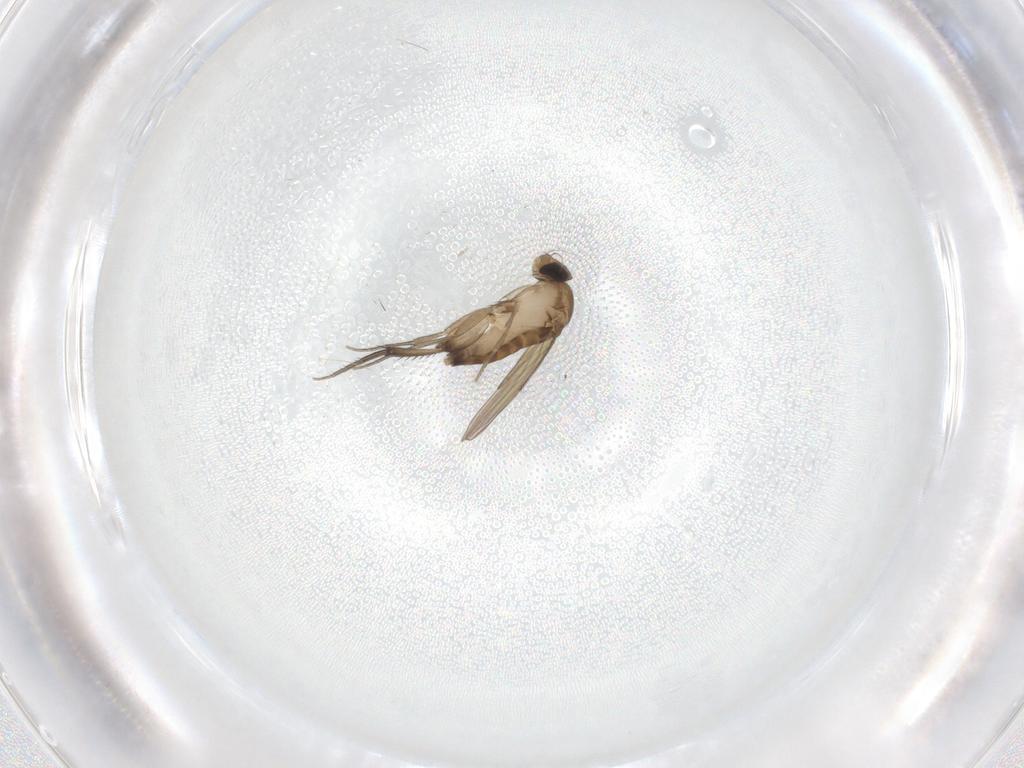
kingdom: Animalia
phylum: Arthropoda
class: Insecta
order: Diptera
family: Phoridae
